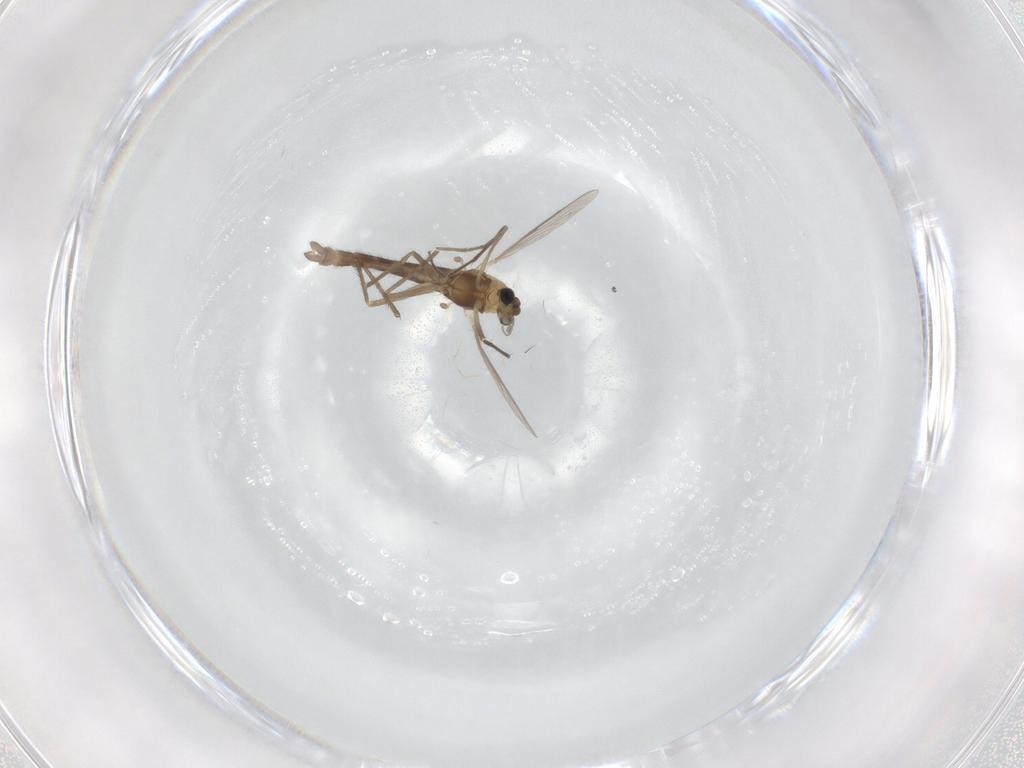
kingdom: Animalia
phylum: Arthropoda
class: Insecta
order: Diptera
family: Chironomidae
